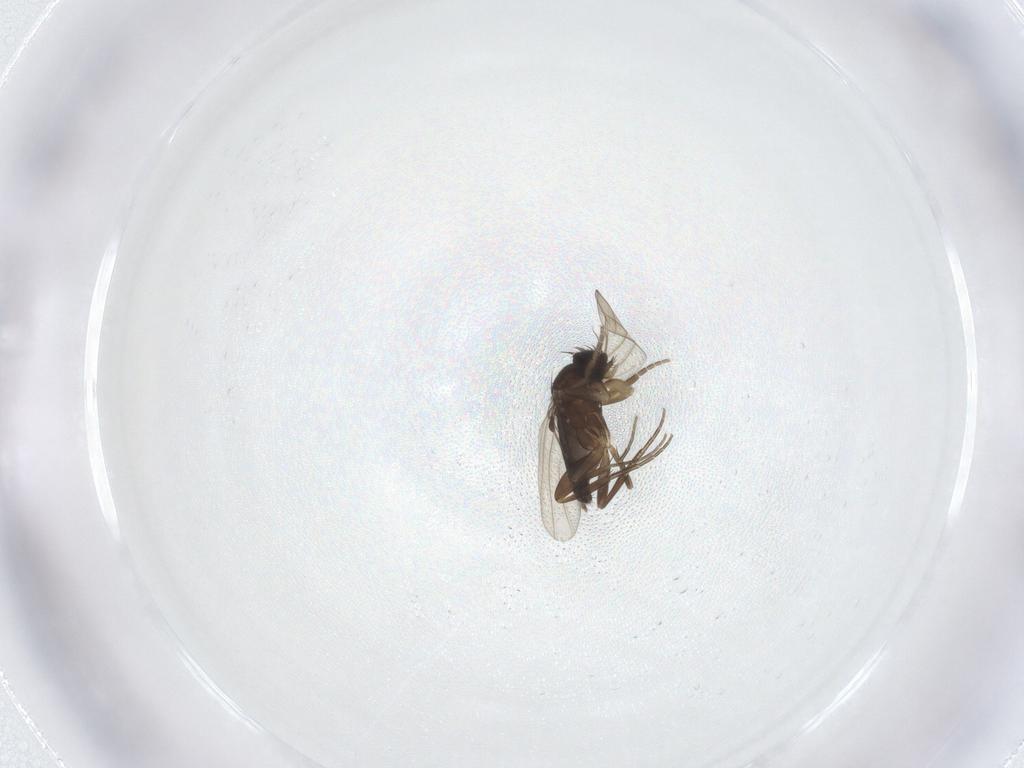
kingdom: Animalia
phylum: Arthropoda
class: Insecta
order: Diptera
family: Phoridae
